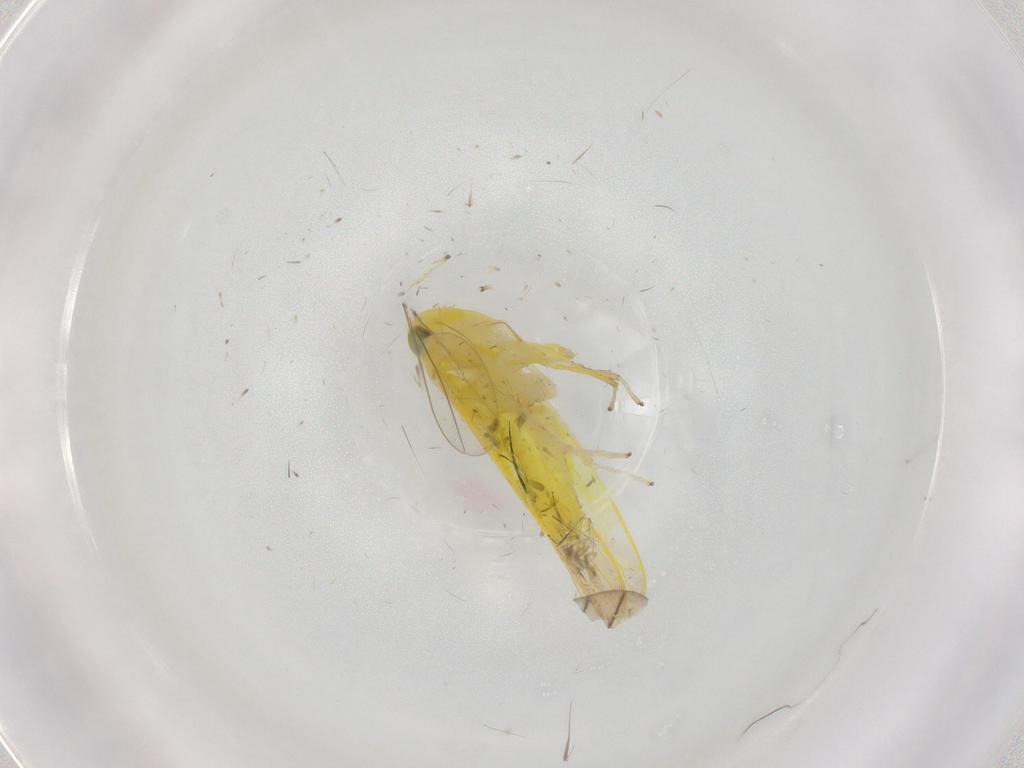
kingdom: Animalia
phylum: Arthropoda
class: Insecta
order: Hemiptera
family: Cicadellidae
